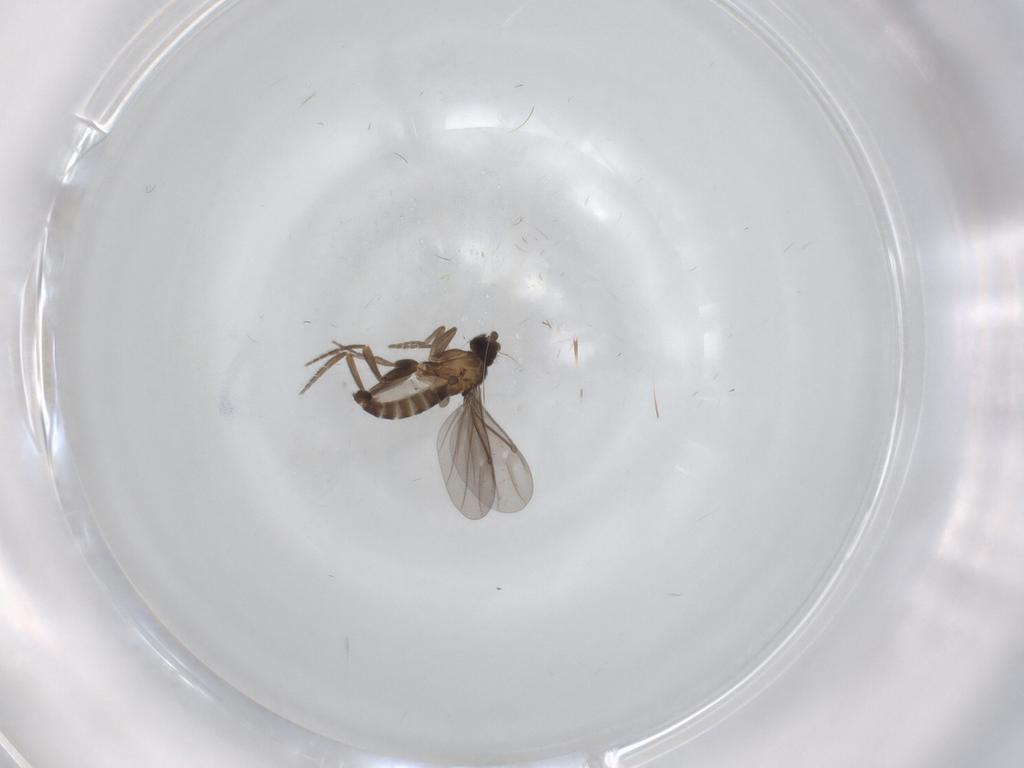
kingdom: Animalia
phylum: Arthropoda
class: Insecta
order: Diptera
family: Phoridae
